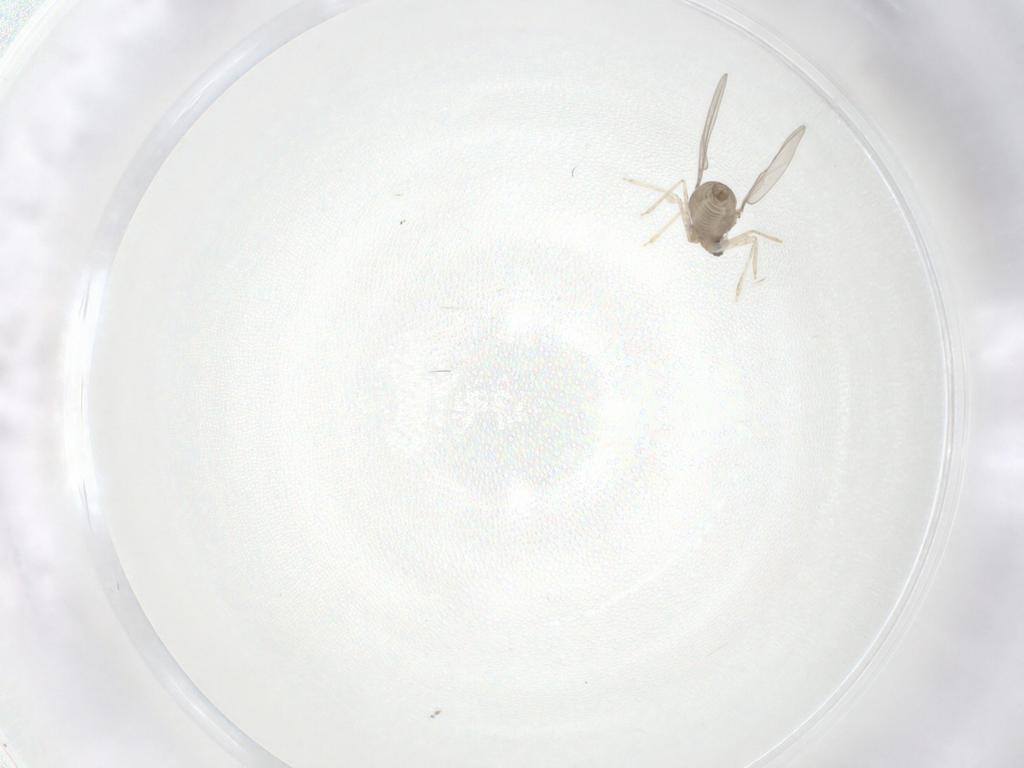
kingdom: Animalia
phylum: Arthropoda
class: Insecta
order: Diptera
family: Cecidomyiidae
